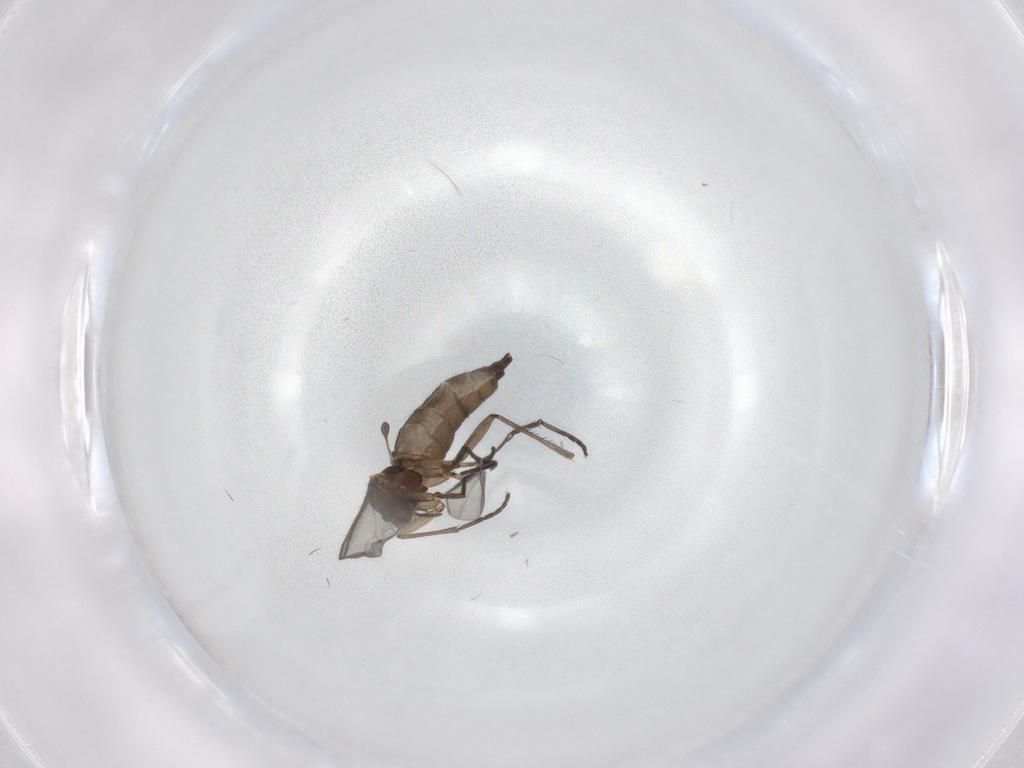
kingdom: Animalia
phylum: Arthropoda
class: Insecta
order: Diptera
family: Sciaridae
